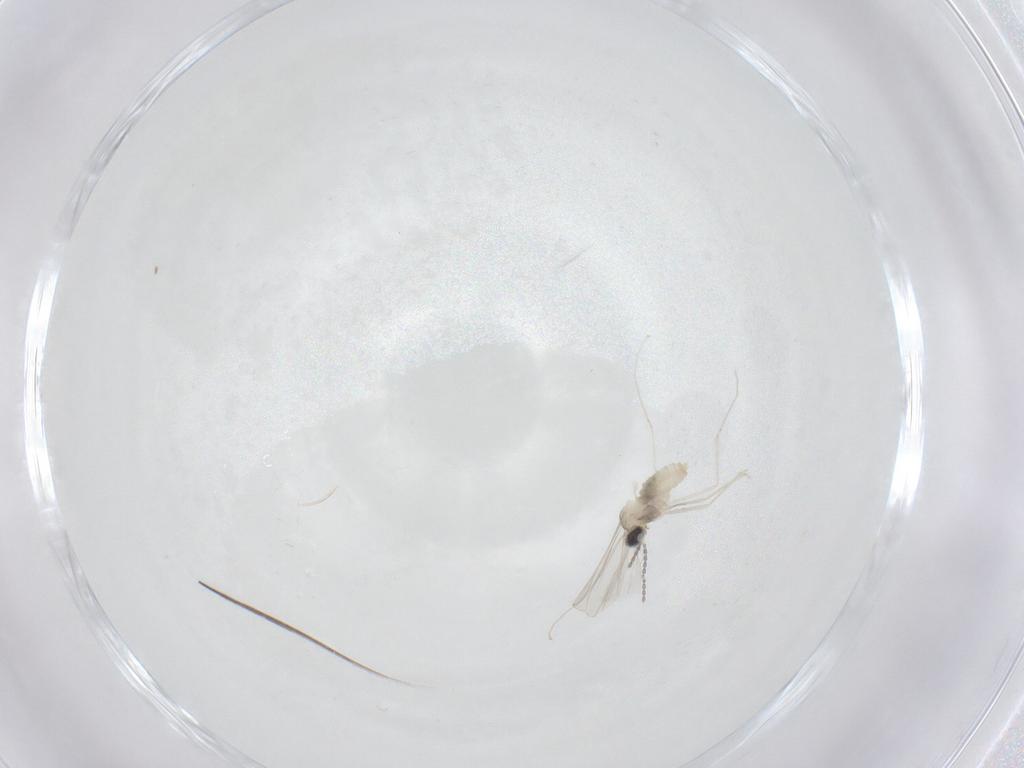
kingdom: Animalia
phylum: Arthropoda
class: Insecta
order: Diptera
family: Cecidomyiidae
